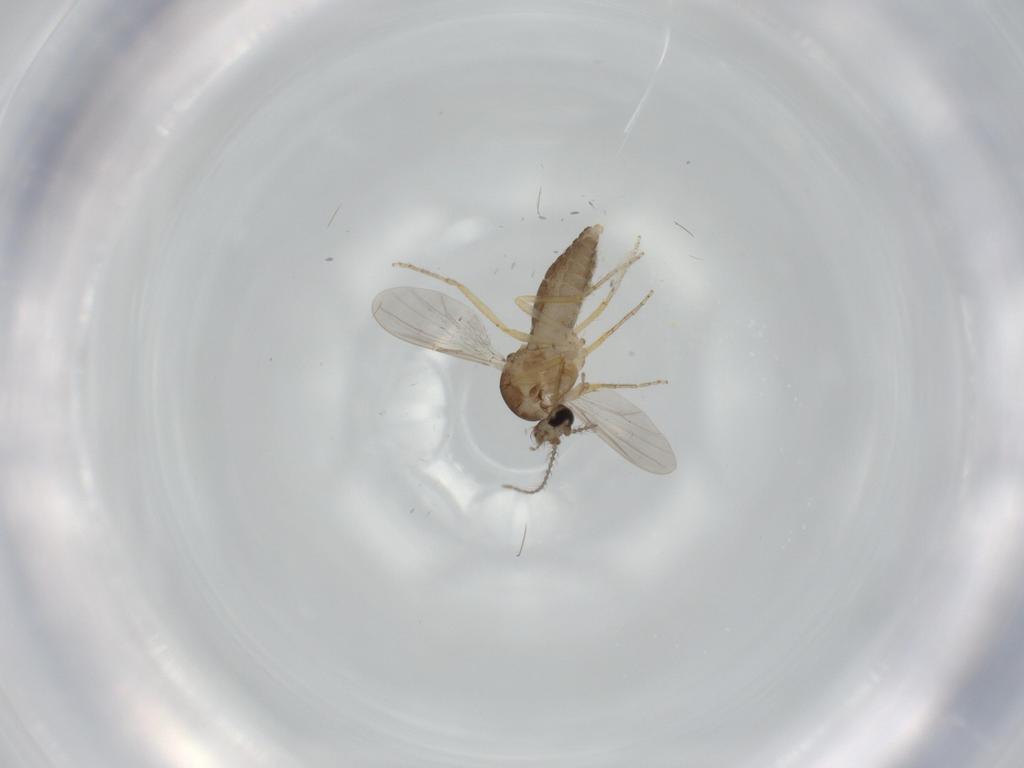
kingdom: Animalia
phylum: Arthropoda
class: Insecta
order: Diptera
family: Ceratopogonidae
